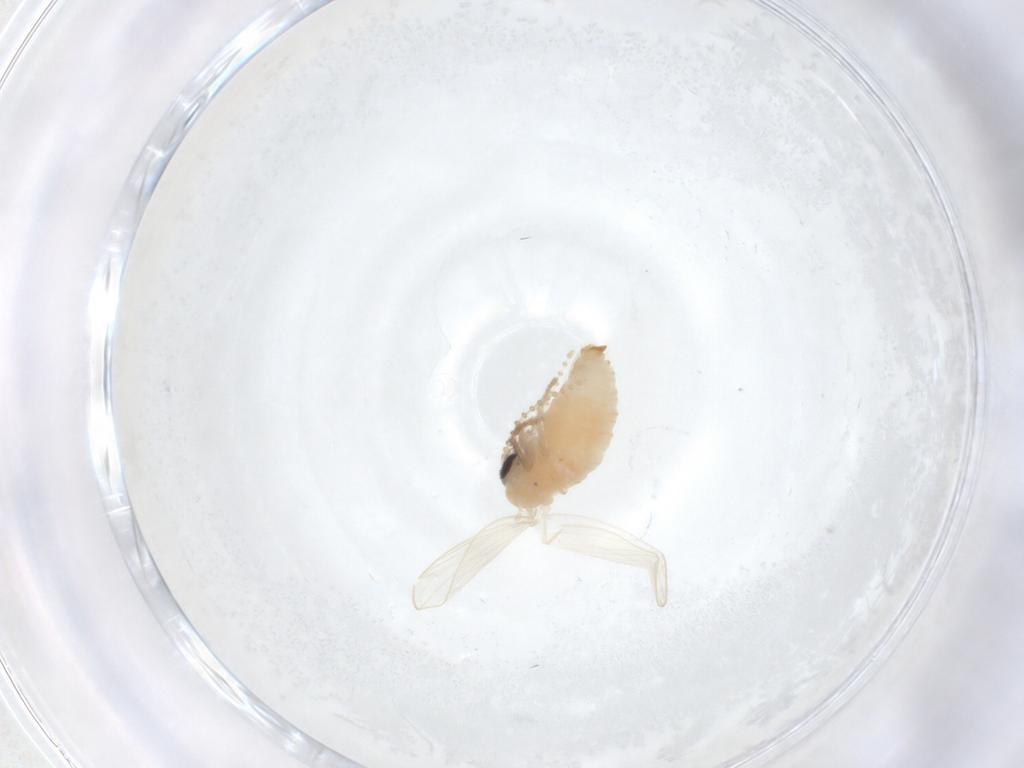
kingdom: Animalia
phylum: Arthropoda
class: Insecta
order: Diptera
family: Psychodidae
